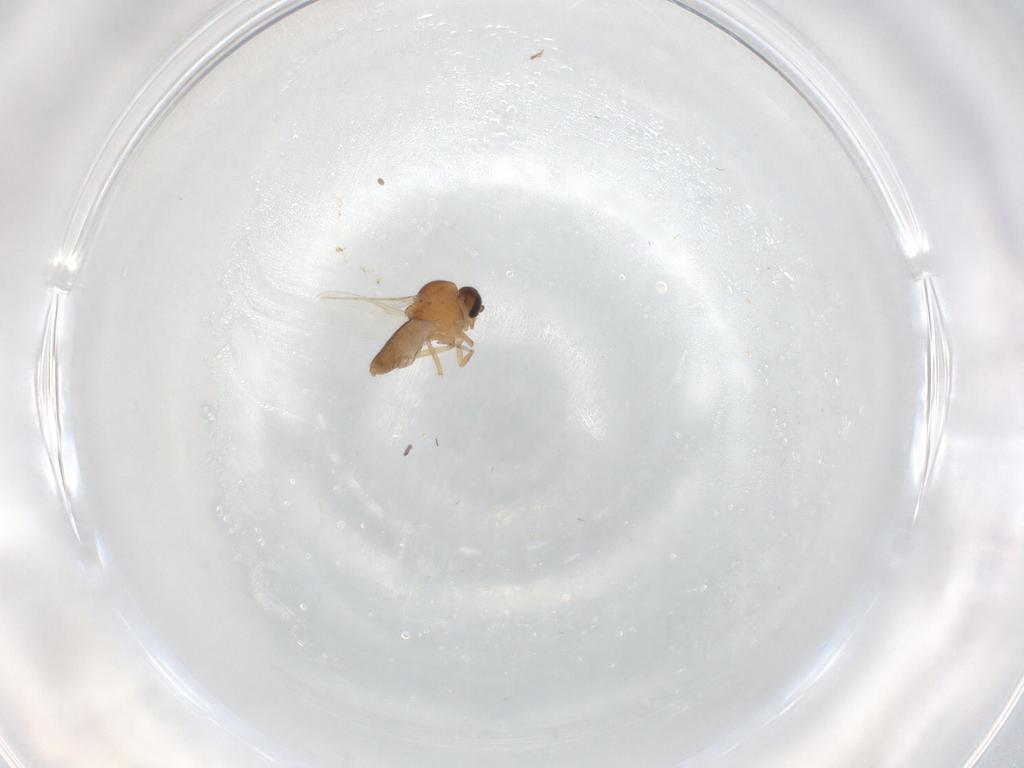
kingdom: Animalia
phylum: Arthropoda
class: Insecta
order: Diptera
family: Ceratopogonidae
